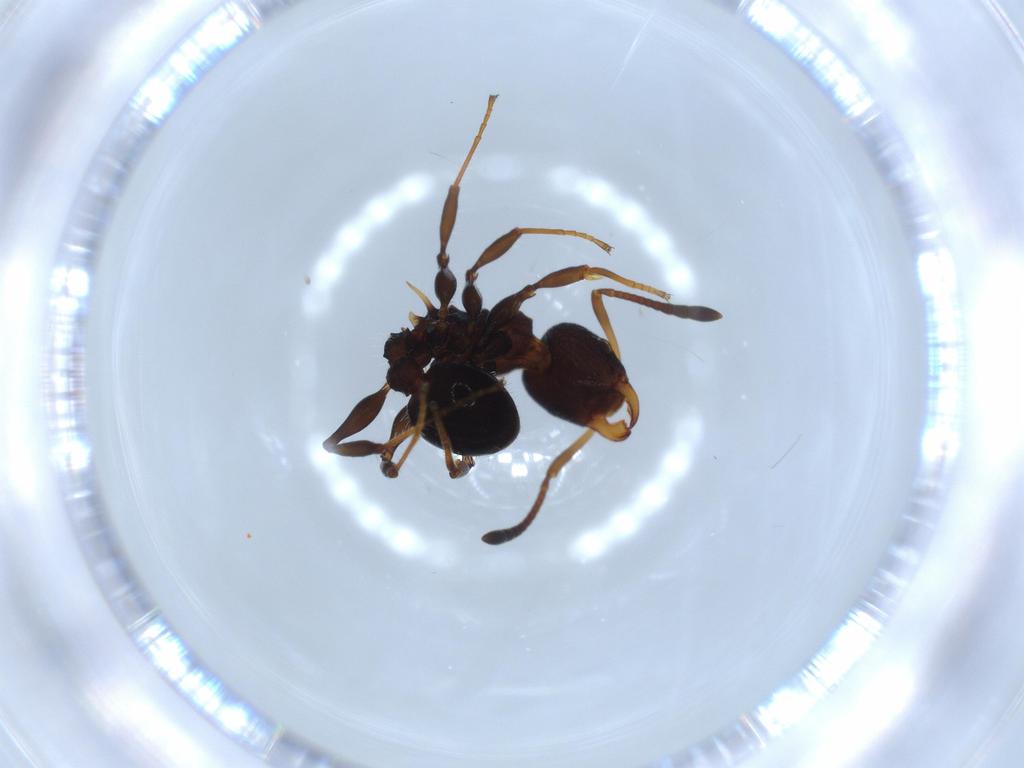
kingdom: Animalia
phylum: Arthropoda
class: Insecta
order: Hymenoptera
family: Formicidae
